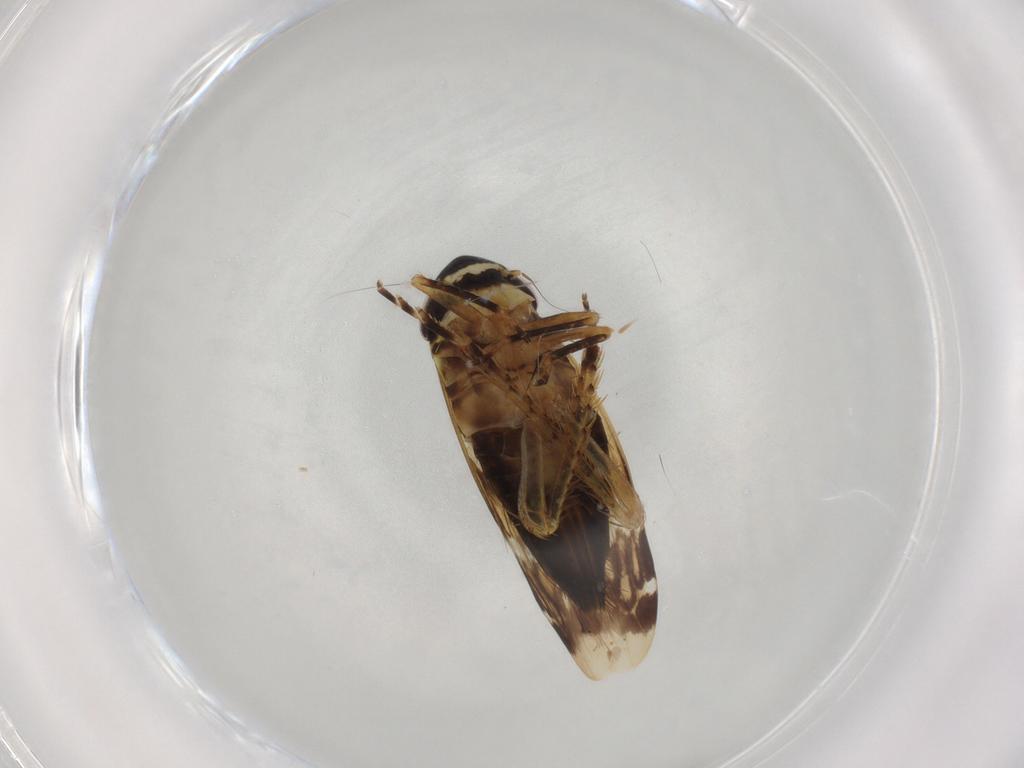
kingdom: Animalia
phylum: Arthropoda
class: Insecta
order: Hemiptera
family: Cicadellidae
